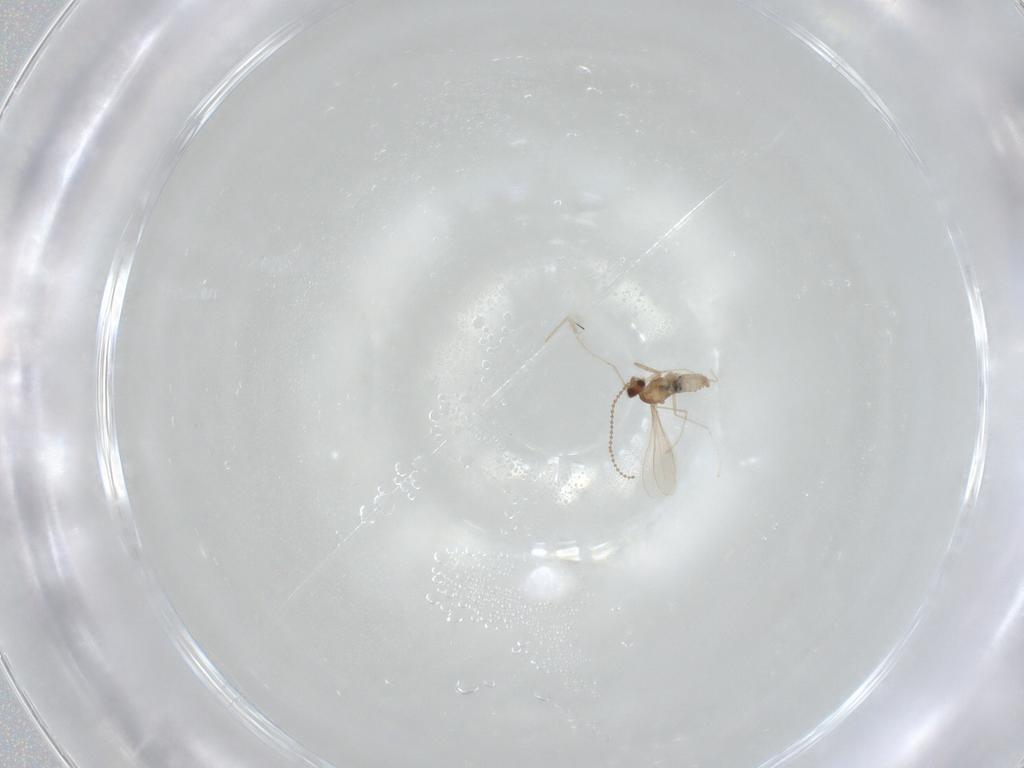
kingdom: Animalia
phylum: Arthropoda
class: Insecta
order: Diptera
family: Cecidomyiidae
